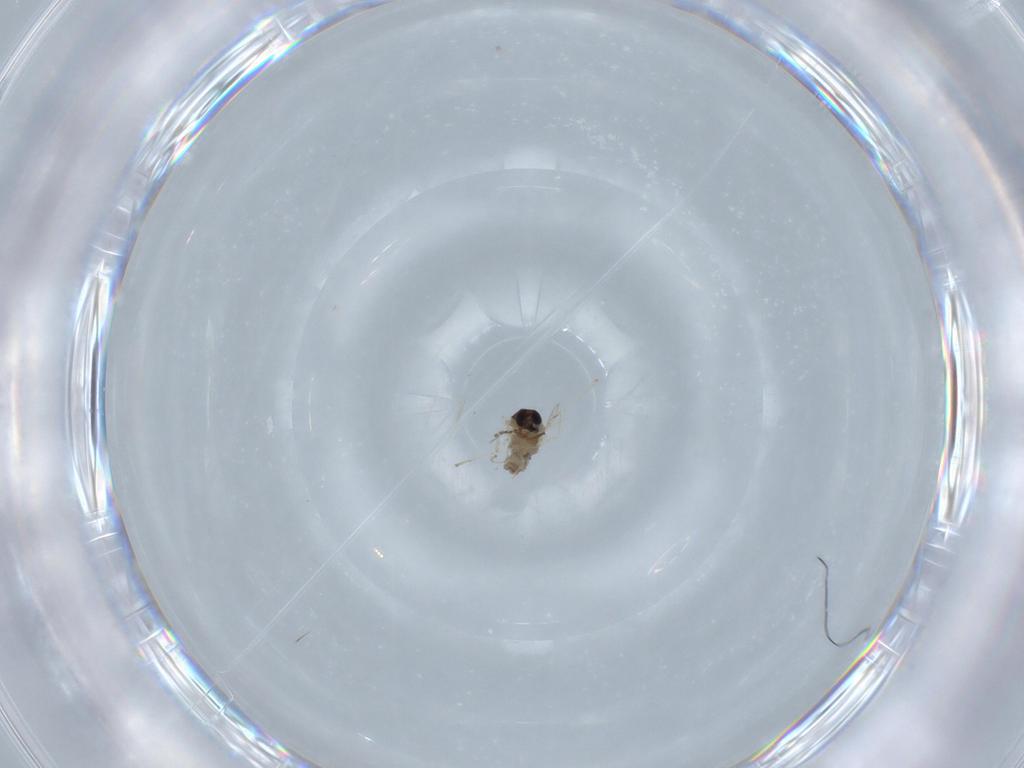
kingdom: Animalia
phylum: Arthropoda
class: Insecta
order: Diptera
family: Cecidomyiidae
